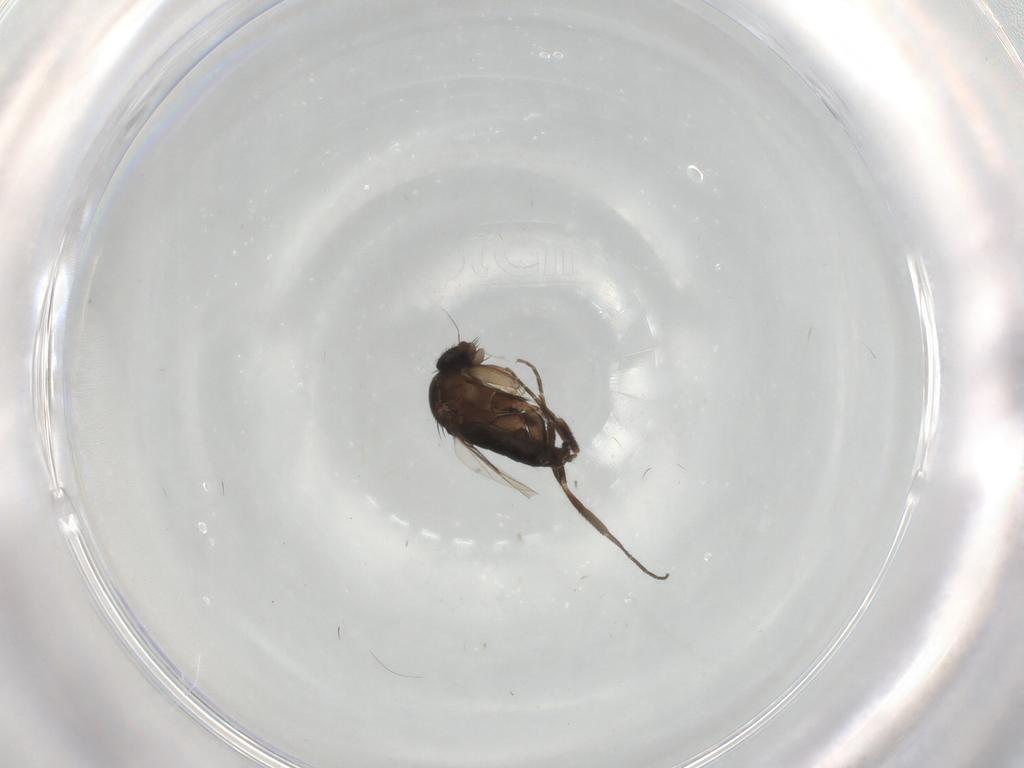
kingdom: Animalia
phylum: Arthropoda
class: Insecta
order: Diptera
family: Phoridae
